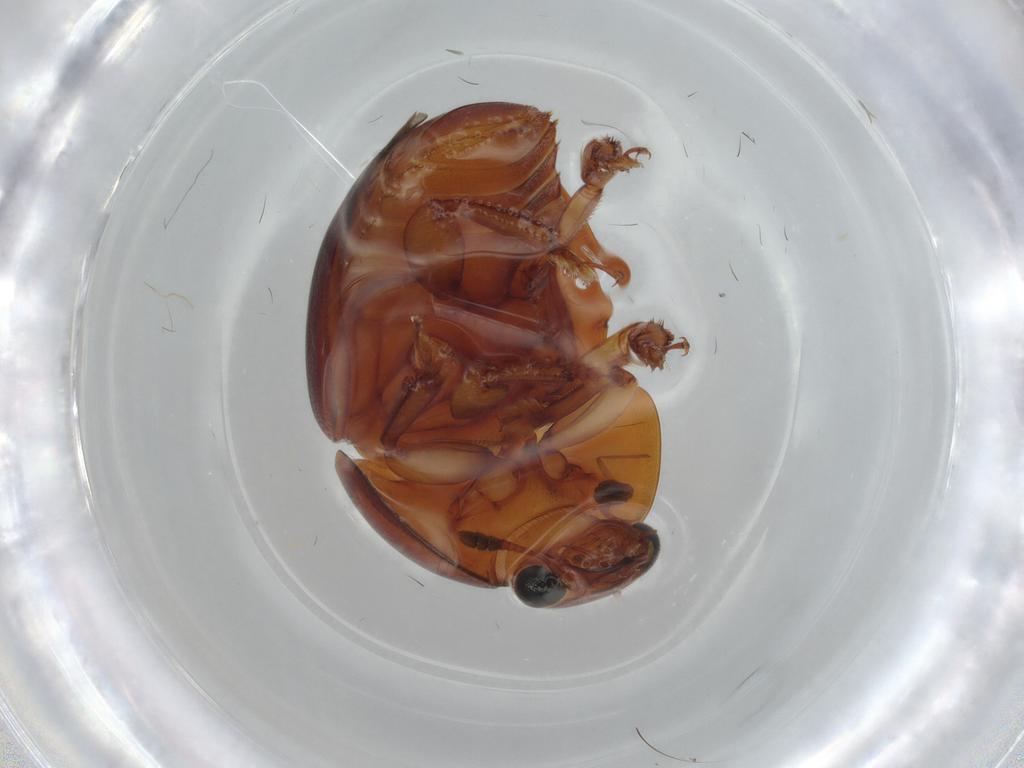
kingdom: Animalia
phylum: Arthropoda
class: Insecta
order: Coleoptera
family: Nitidulidae
